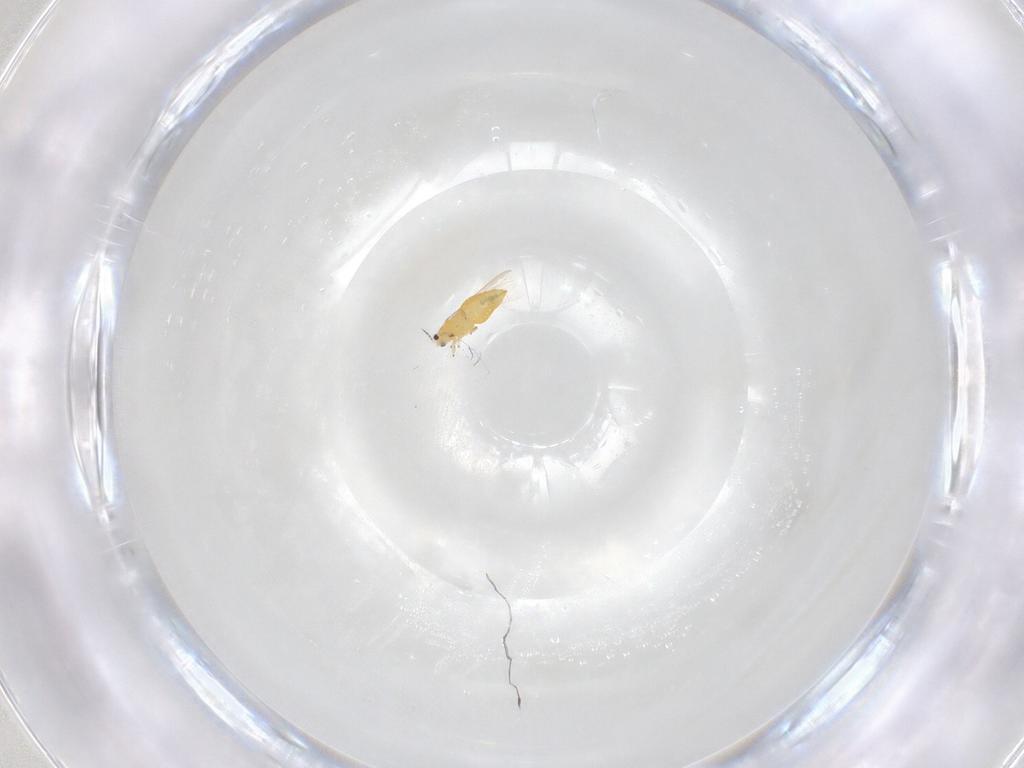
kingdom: Animalia
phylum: Arthropoda
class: Insecta
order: Thysanoptera
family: Thripidae
